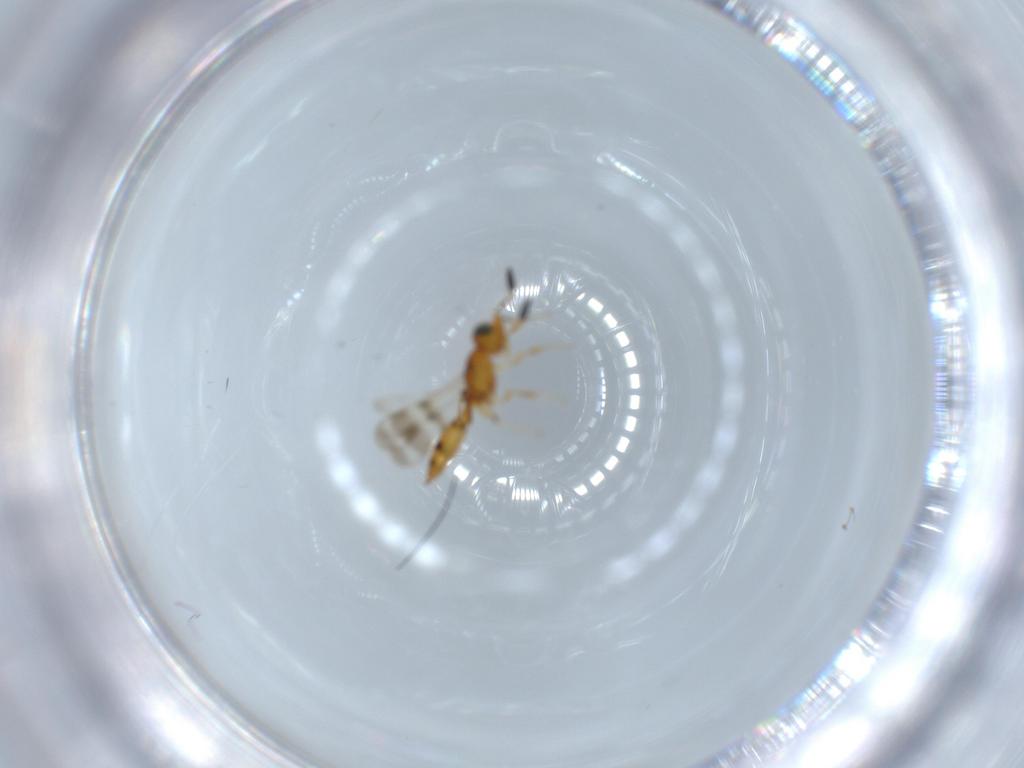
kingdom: Animalia
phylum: Arthropoda
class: Insecta
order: Hymenoptera
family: Scelionidae
